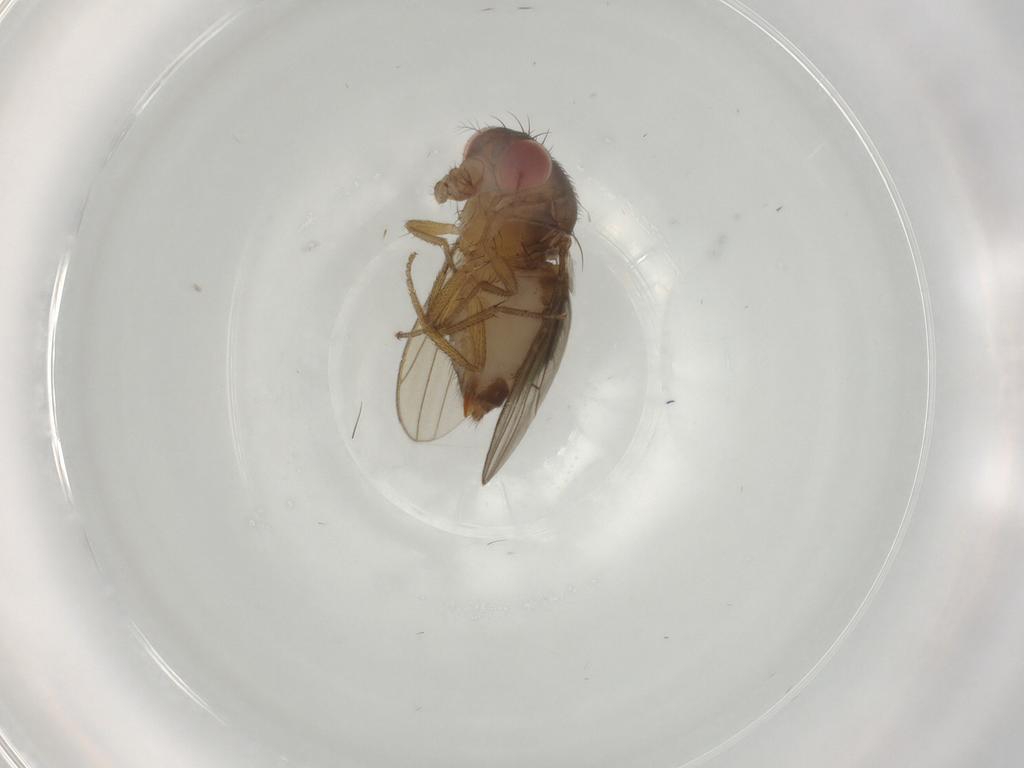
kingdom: Animalia
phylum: Arthropoda
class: Insecta
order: Diptera
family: Drosophilidae
